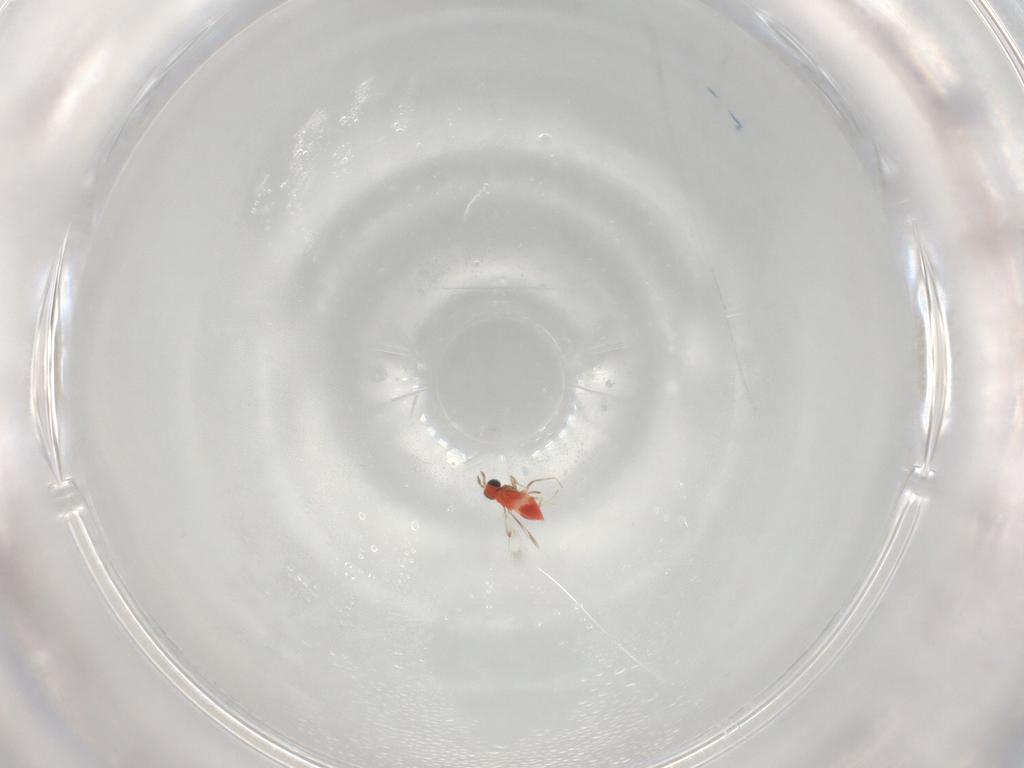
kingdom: Animalia
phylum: Arthropoda
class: Insecta
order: Hymenoptera
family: Trichogrammatidae
